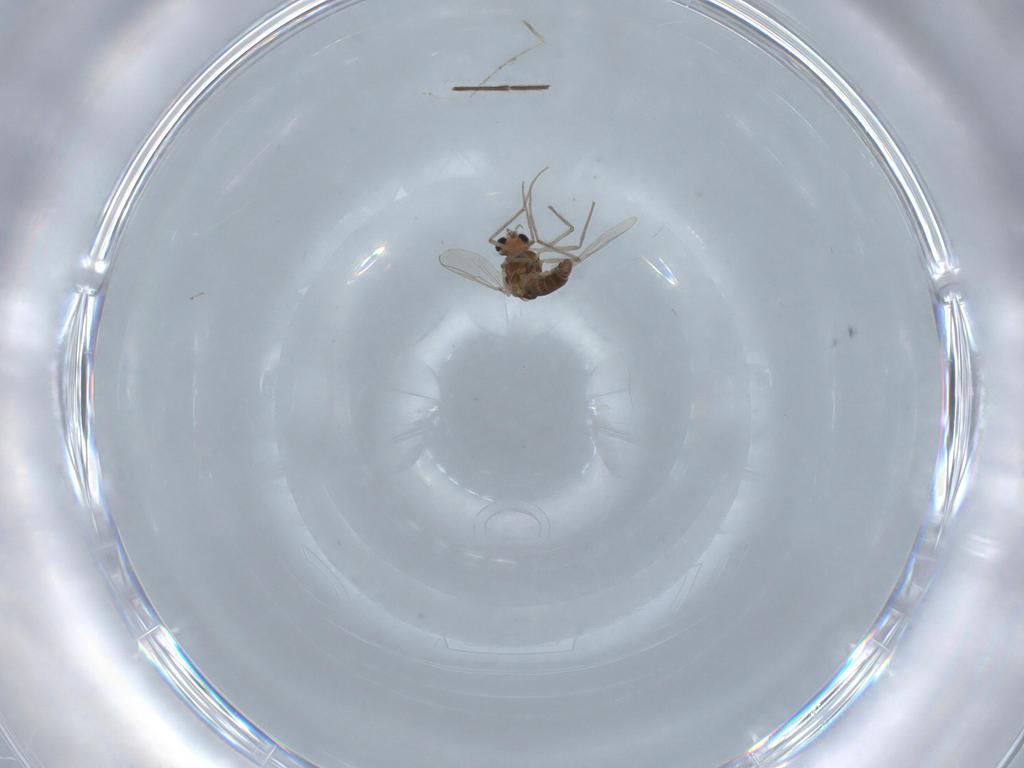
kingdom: Animalia
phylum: Arthropoda
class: Insecta
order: Diptera
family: Chironomidae
